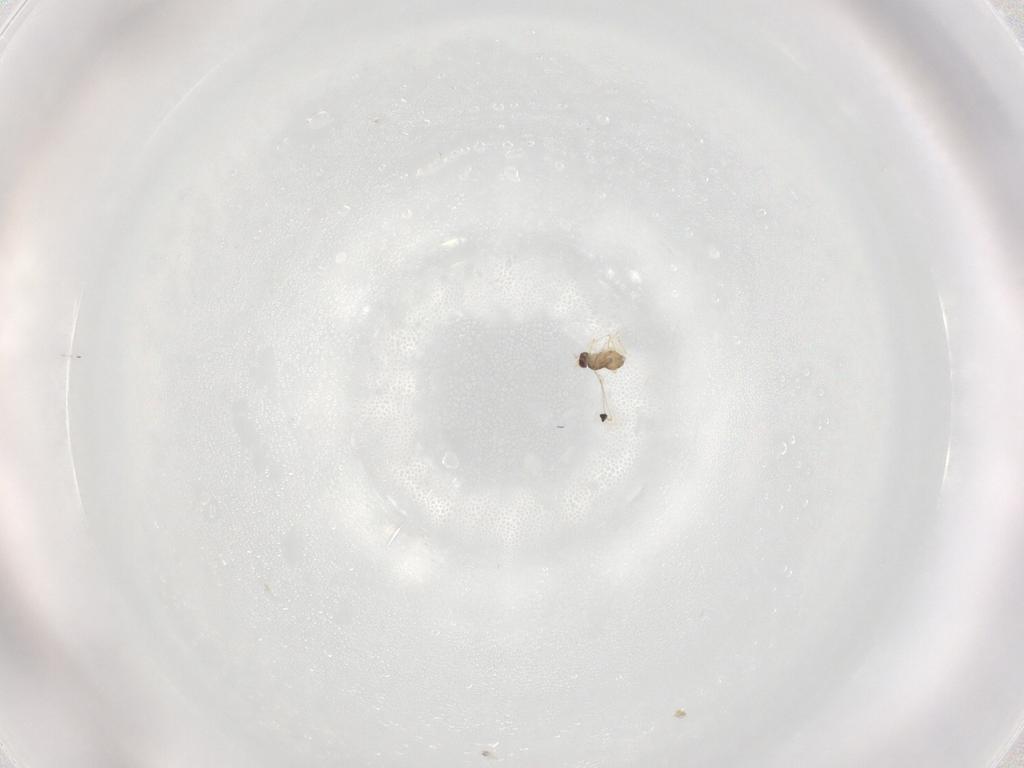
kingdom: Animalia
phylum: Arthropoda
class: Insecta
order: Hymenoptera
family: Mymaridae
